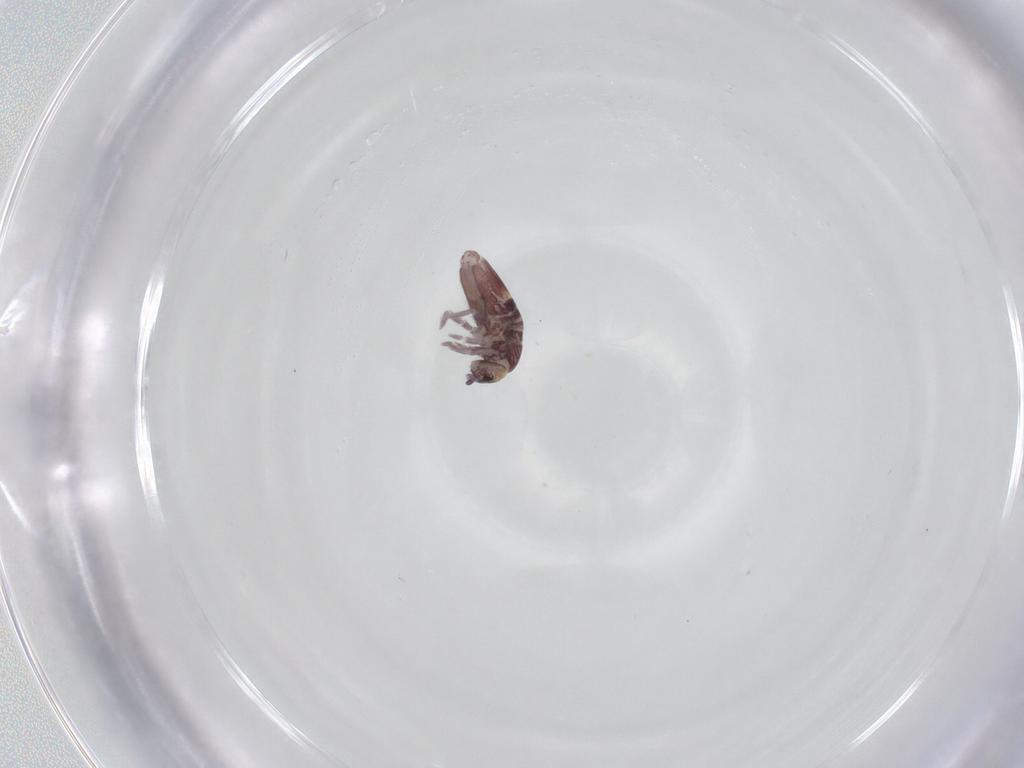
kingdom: Animalia
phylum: Arthropoda
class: Collembola
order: Entomobryomorpha
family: Entomobryidae
